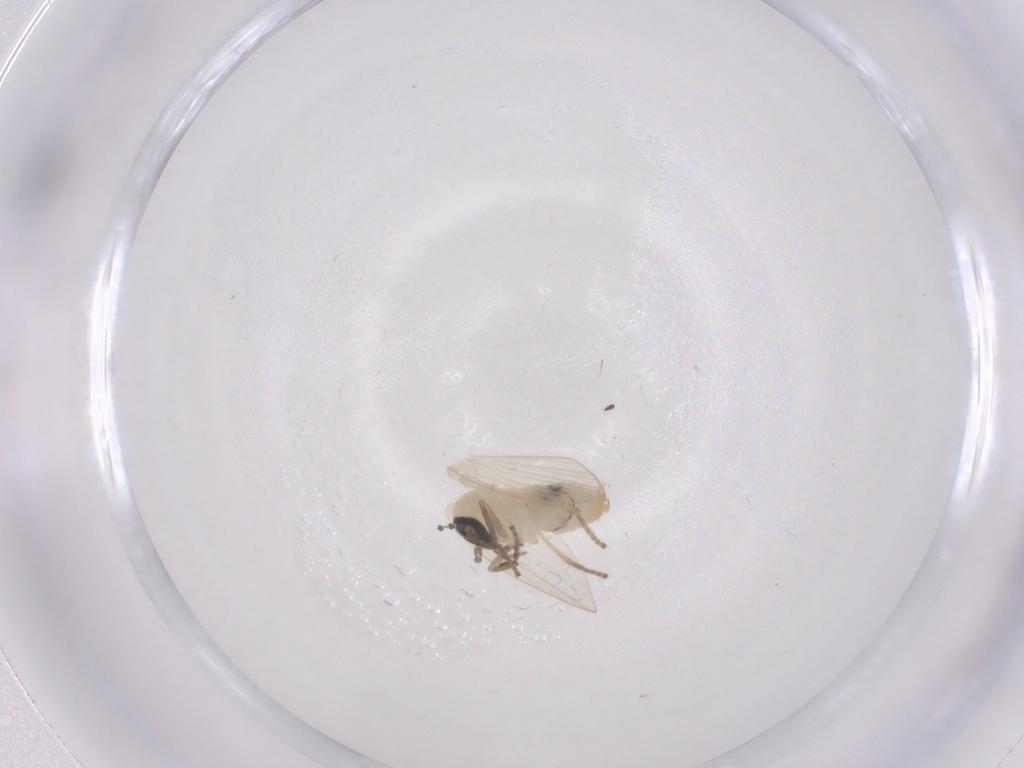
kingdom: Animalia
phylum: Arthropoda
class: Insecta
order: Diptera
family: Psychodidae
